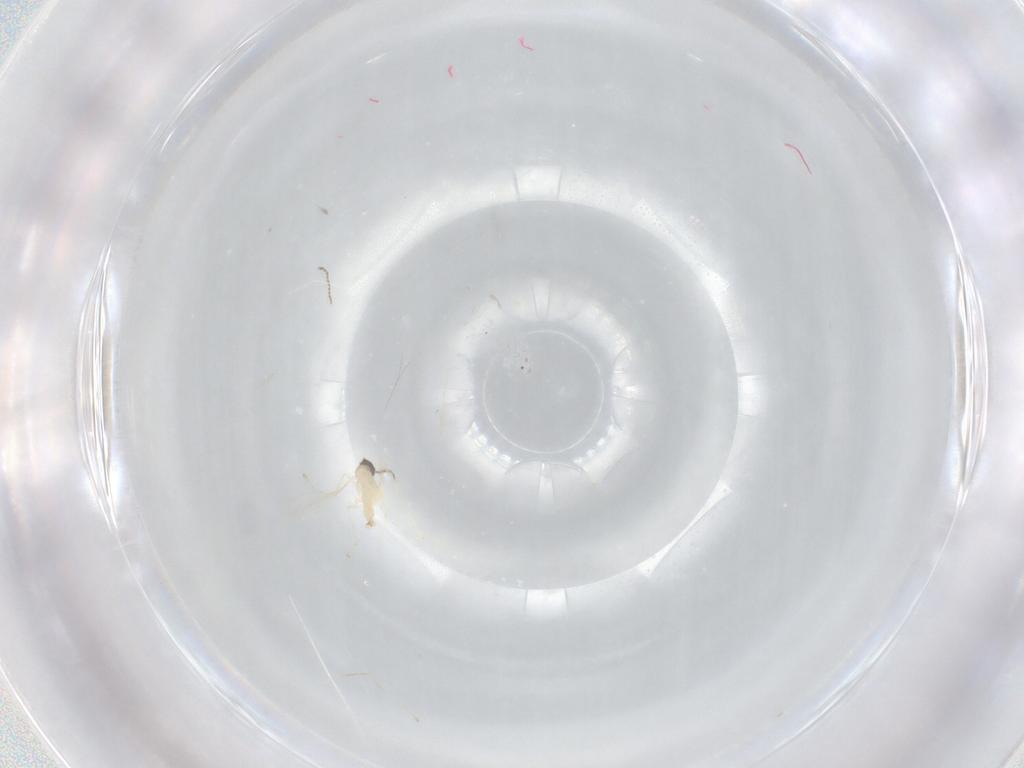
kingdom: Animalia
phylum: Arthropoda
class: Insecta
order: Diptera
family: Cecidomyiidae
